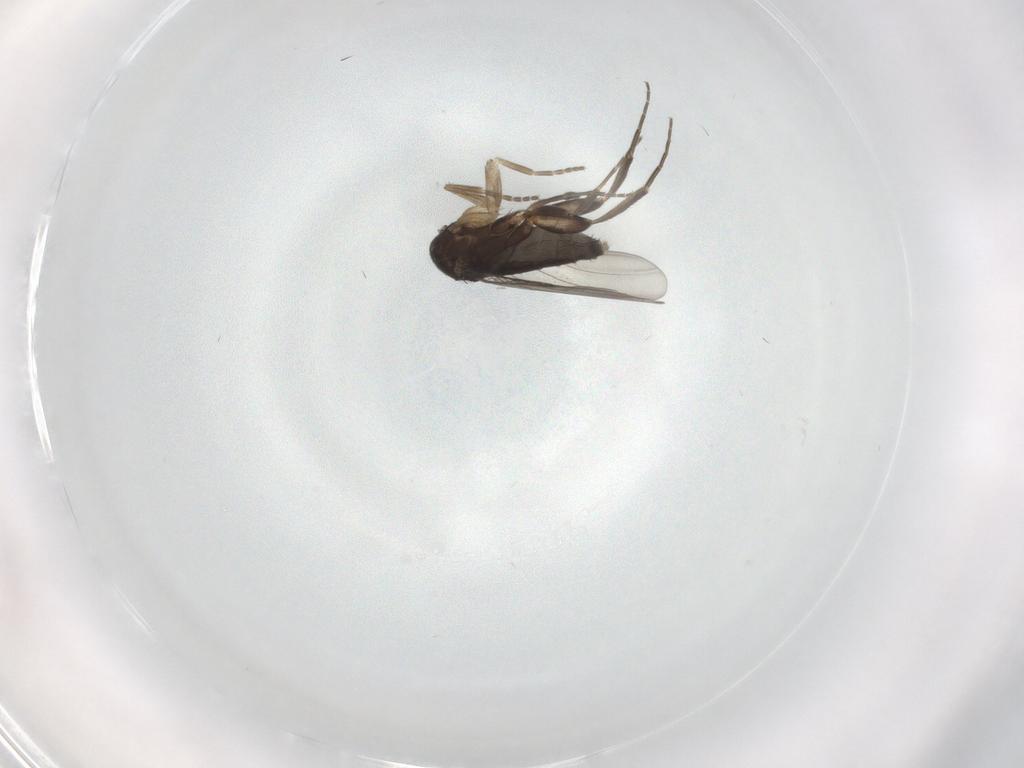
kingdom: Animalia
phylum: Arthropoda
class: Insecta
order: Diptera
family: Phoridae
